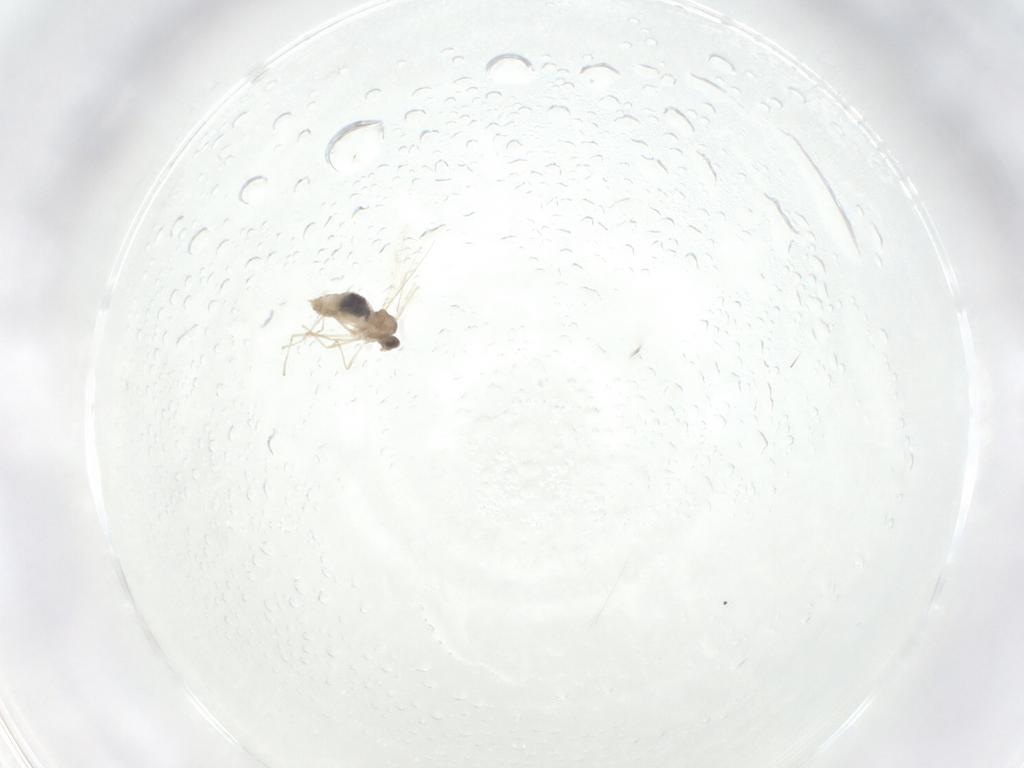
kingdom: Animalia
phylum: Arthropoda
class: Insecta
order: Diptera
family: Cecidomyiidae
